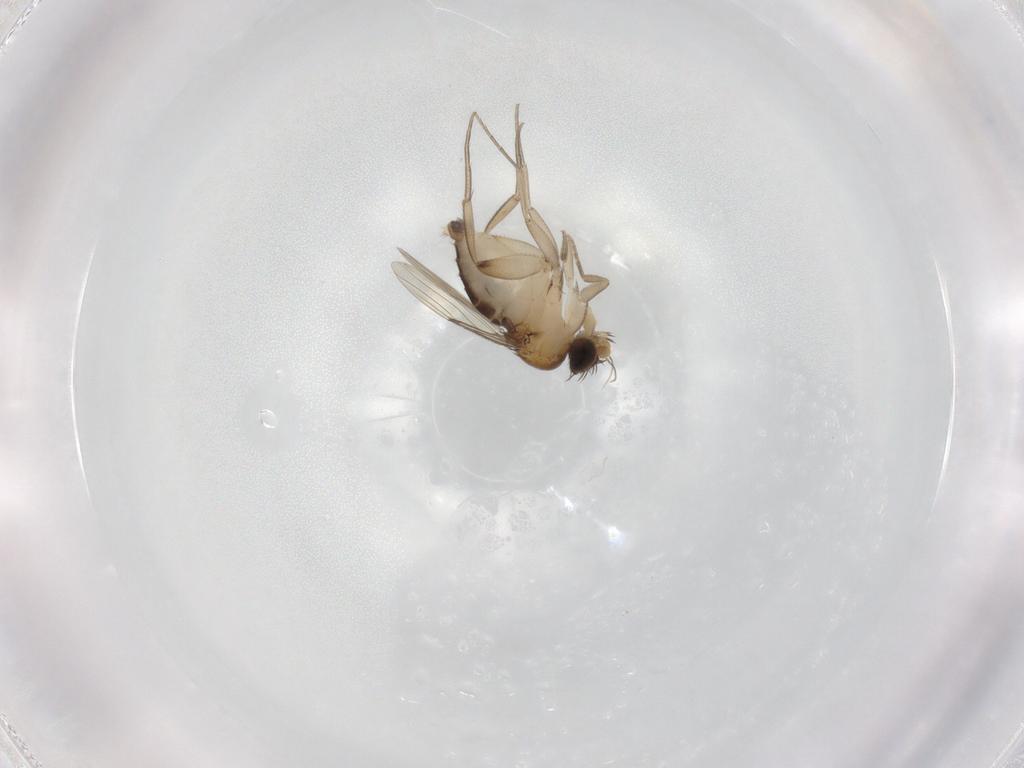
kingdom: Animalia
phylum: Arthropoda
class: Insecta
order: Diptera
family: Phoridae
